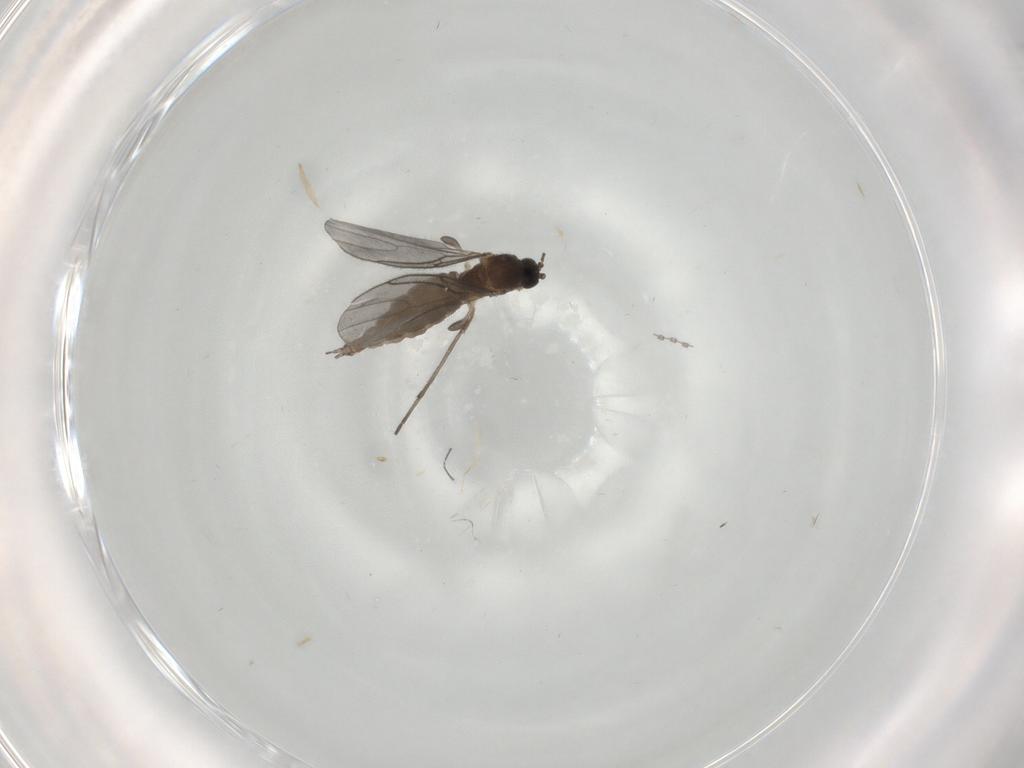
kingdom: Animalia
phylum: Arthropoda
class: Insecta
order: Diptera
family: Sciaridae
